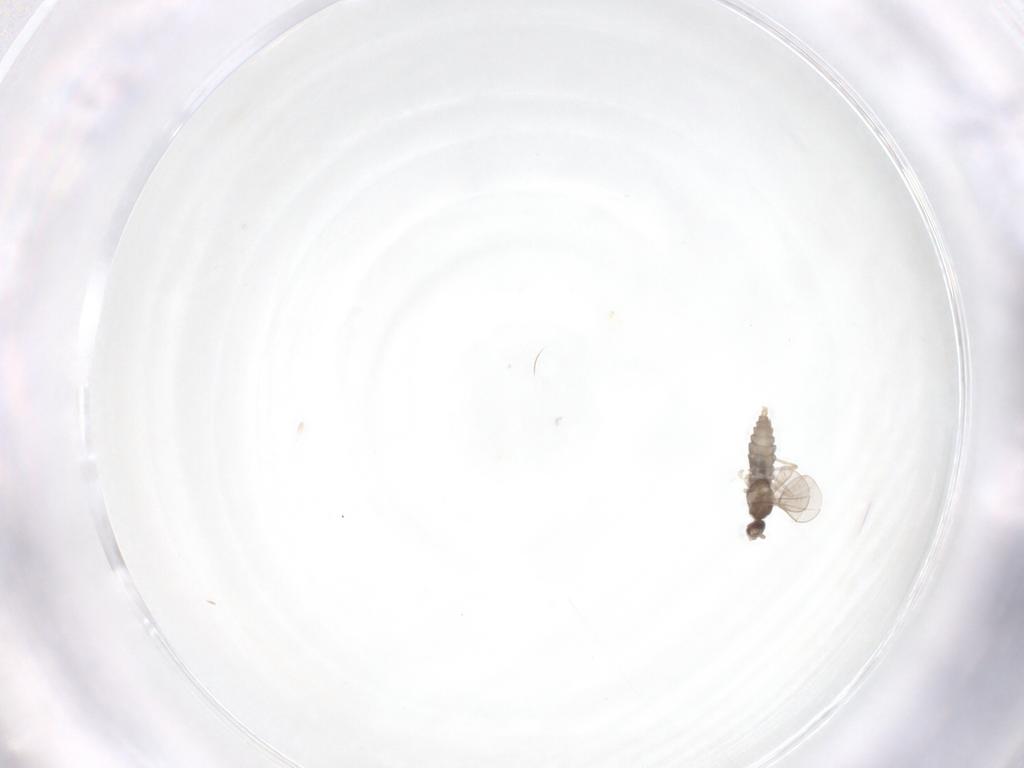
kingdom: Animalia
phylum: Arthropoda
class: Insecta
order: Diptera
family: Cecidomyiidae
